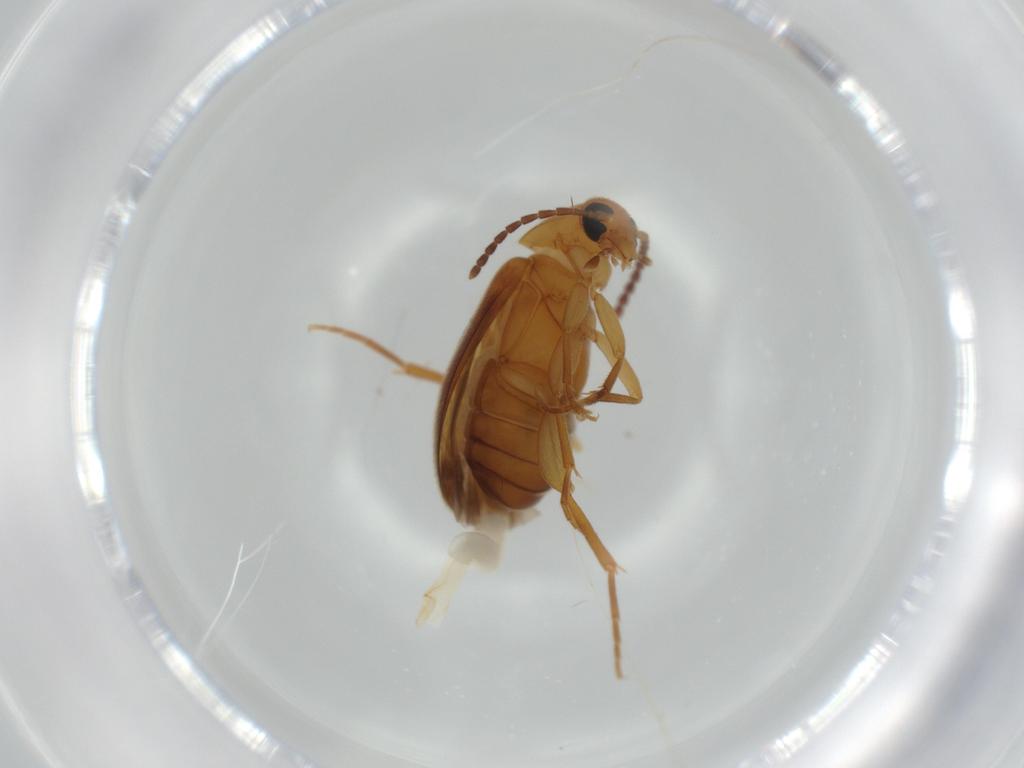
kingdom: Animalia
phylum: Arthropoda
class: Insecta
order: Coleoptera
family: Scraptiidae
